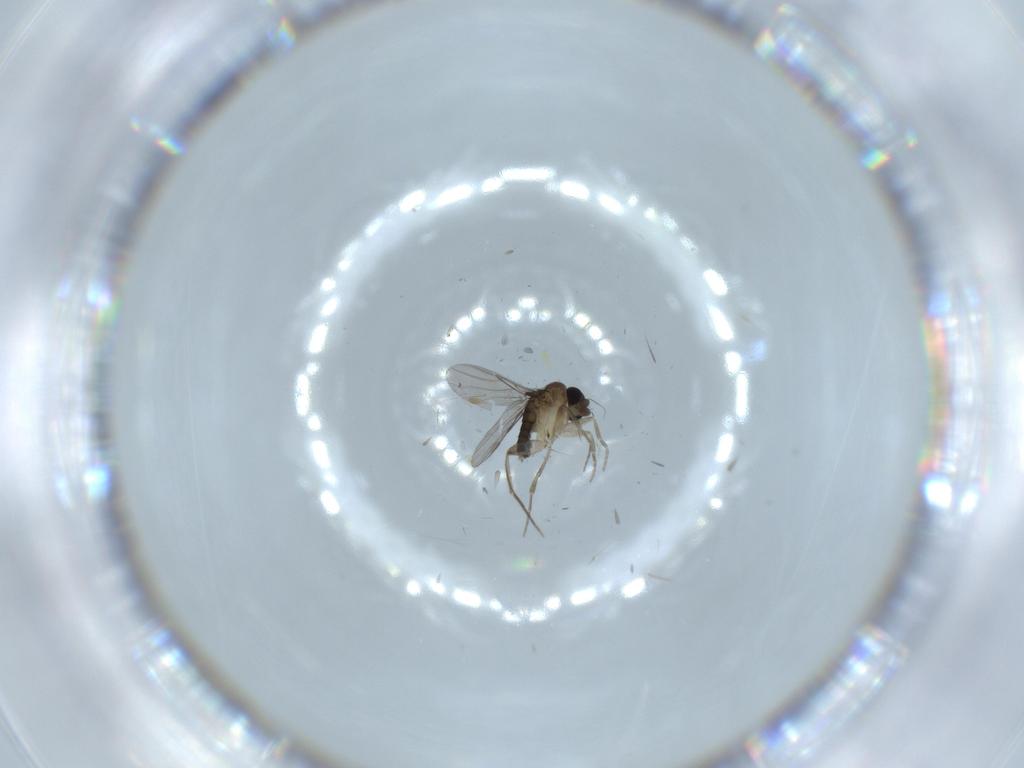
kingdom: Animalia
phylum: Arthropoda
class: Insecta
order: Diptera
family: Phoridae
